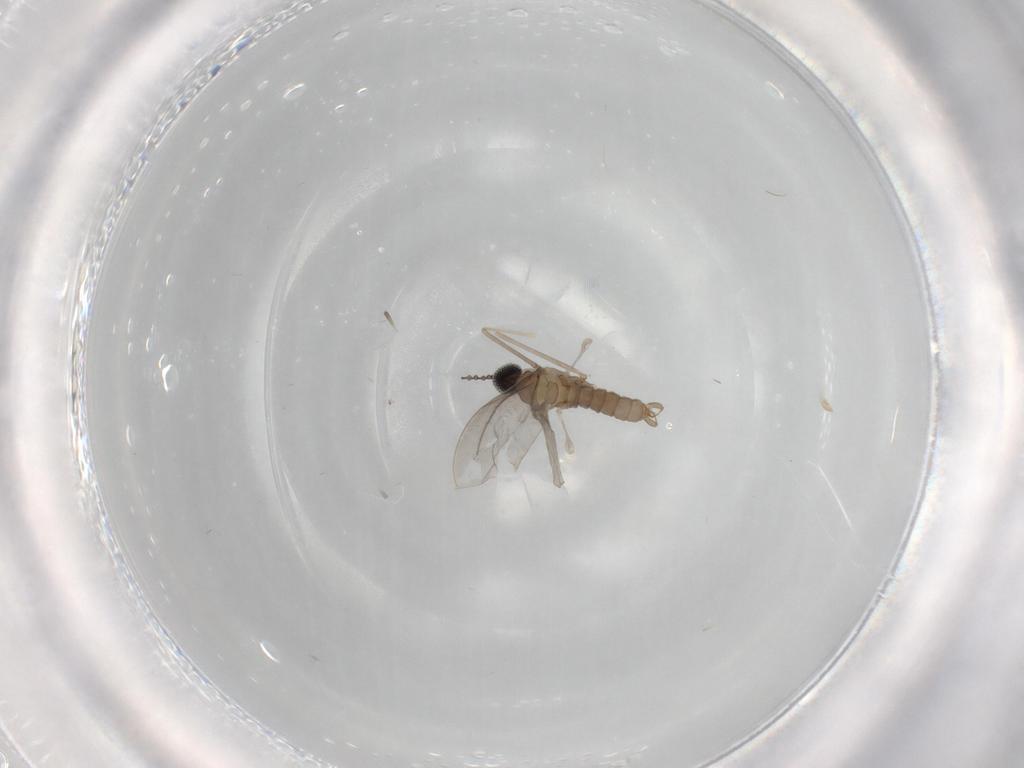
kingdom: Animalia
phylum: Arthropoda
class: Insecta
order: Diptera
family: Cecidomyiidae
